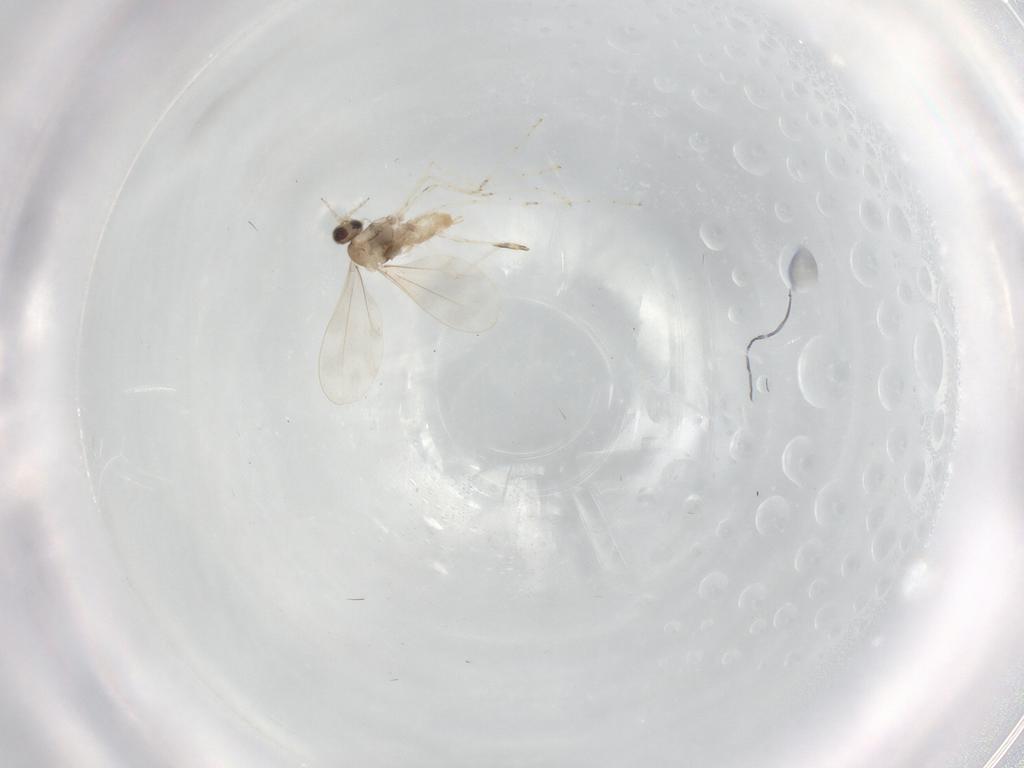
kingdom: Animalia
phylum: Arthropoda
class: Insecta
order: Diptera
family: Cecidomyiidae
